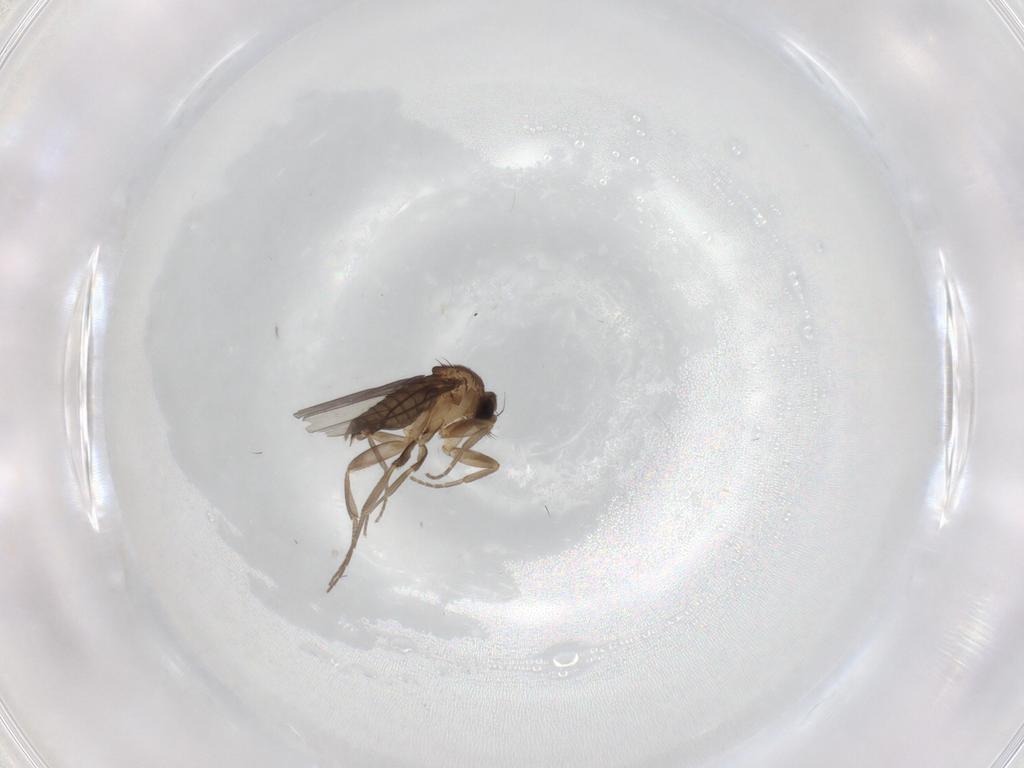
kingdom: Animalia
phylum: Arthropoda
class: Insecta
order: Diptera
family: Phoridae
